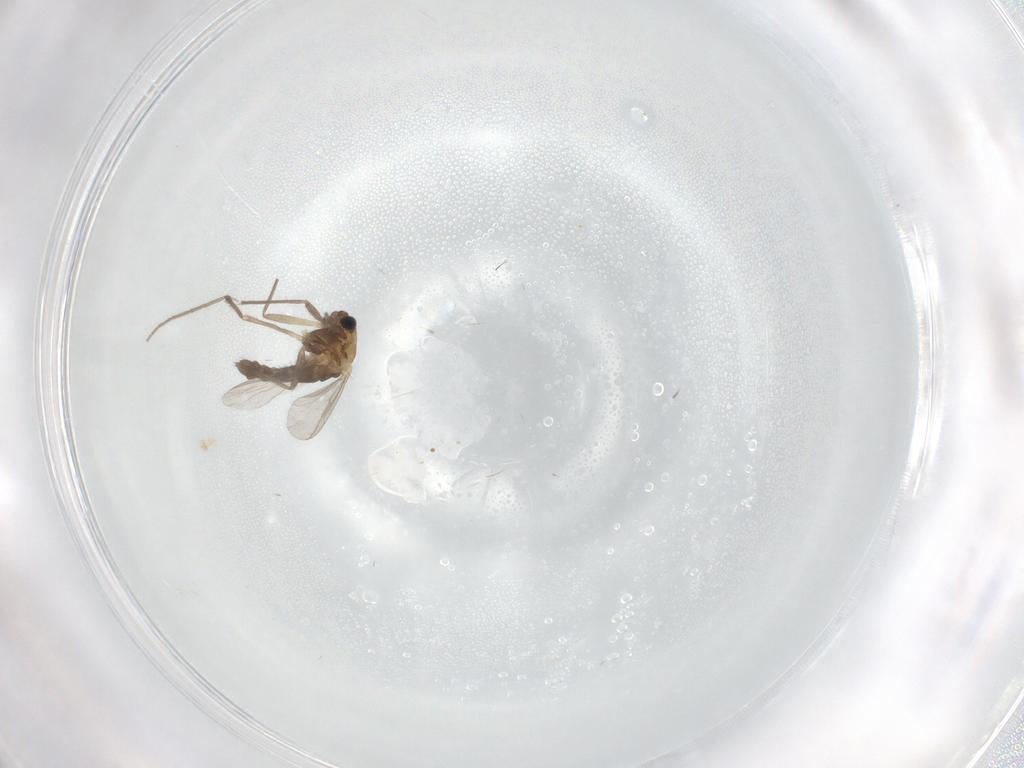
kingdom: Animalia
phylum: Arthropoda
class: Insecta
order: Diptera
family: Chironomidae
